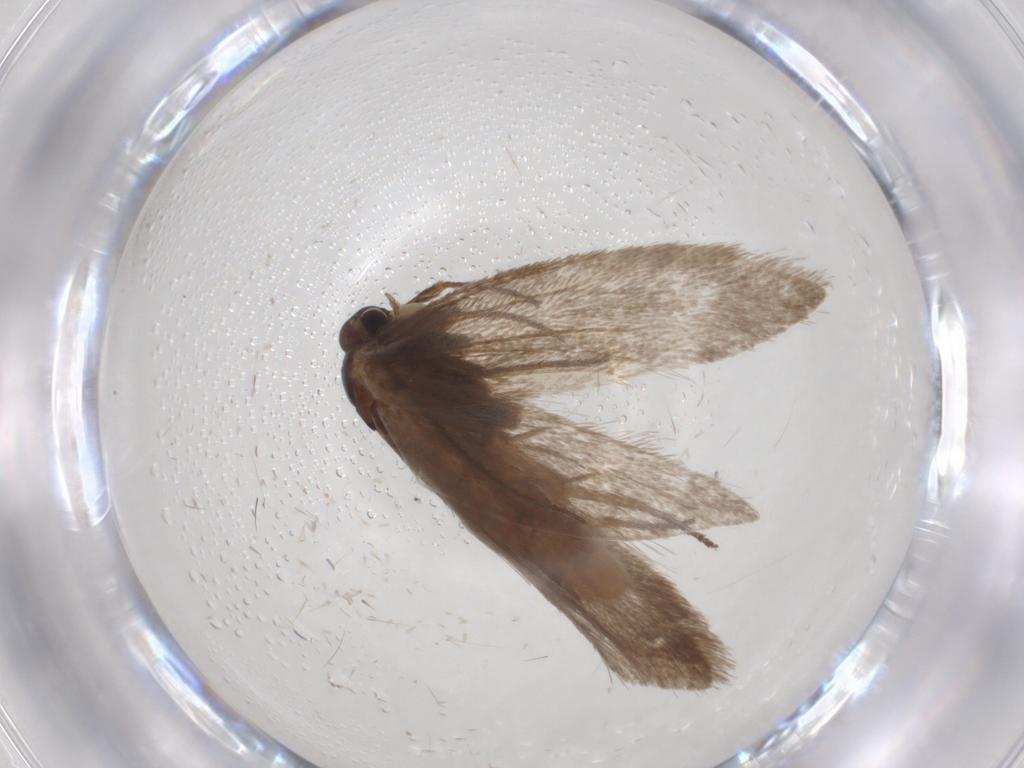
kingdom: Animalia
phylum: Arthropoda
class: Insecta
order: Lepidoptera
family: Limacodidae
